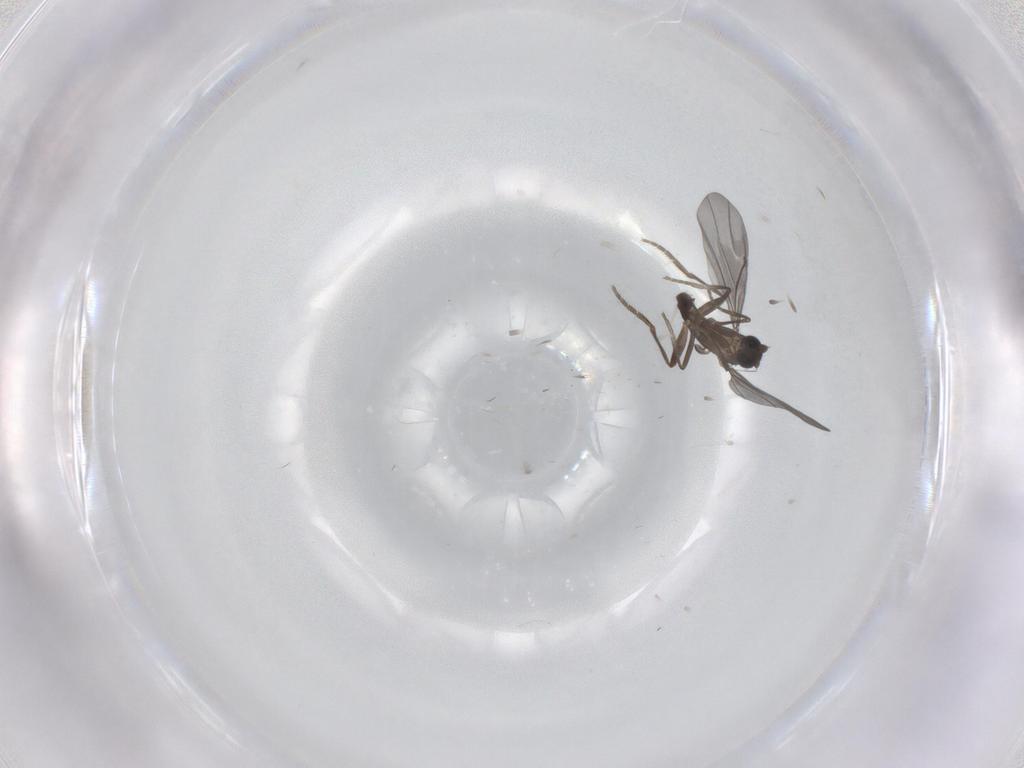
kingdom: Animalia
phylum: Arthropoda
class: Insecta
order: Diptera
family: Phoridae
